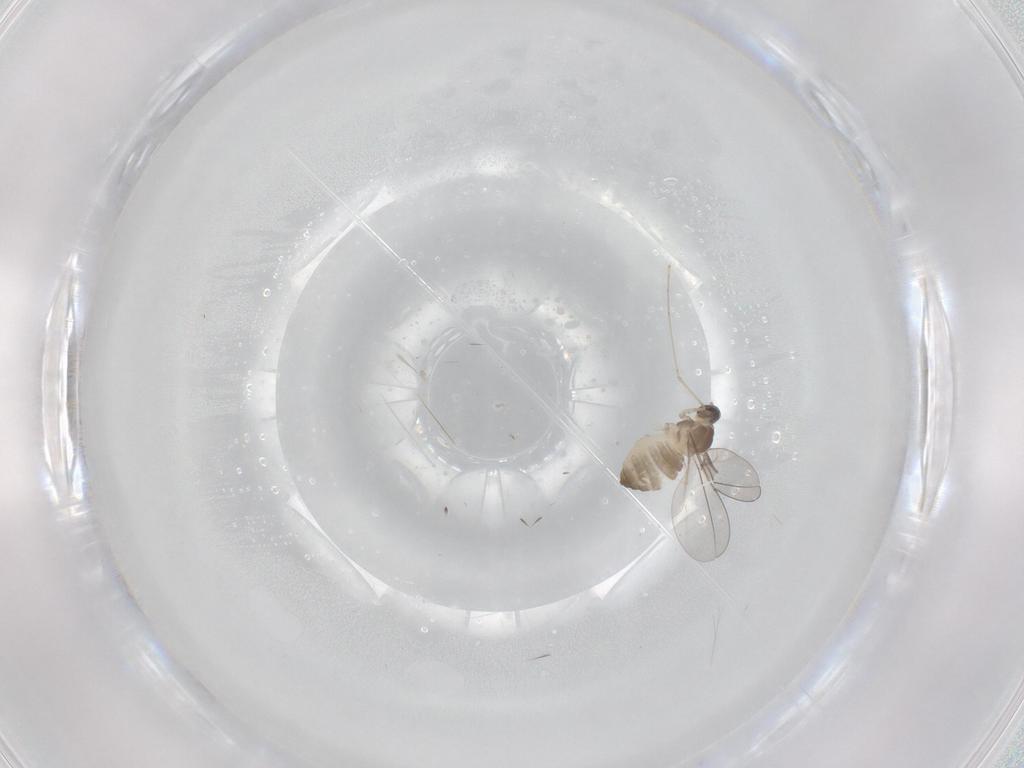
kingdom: Animalia
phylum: Arthropoda
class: Insecta
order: Diptera
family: Cecidomyiidae
